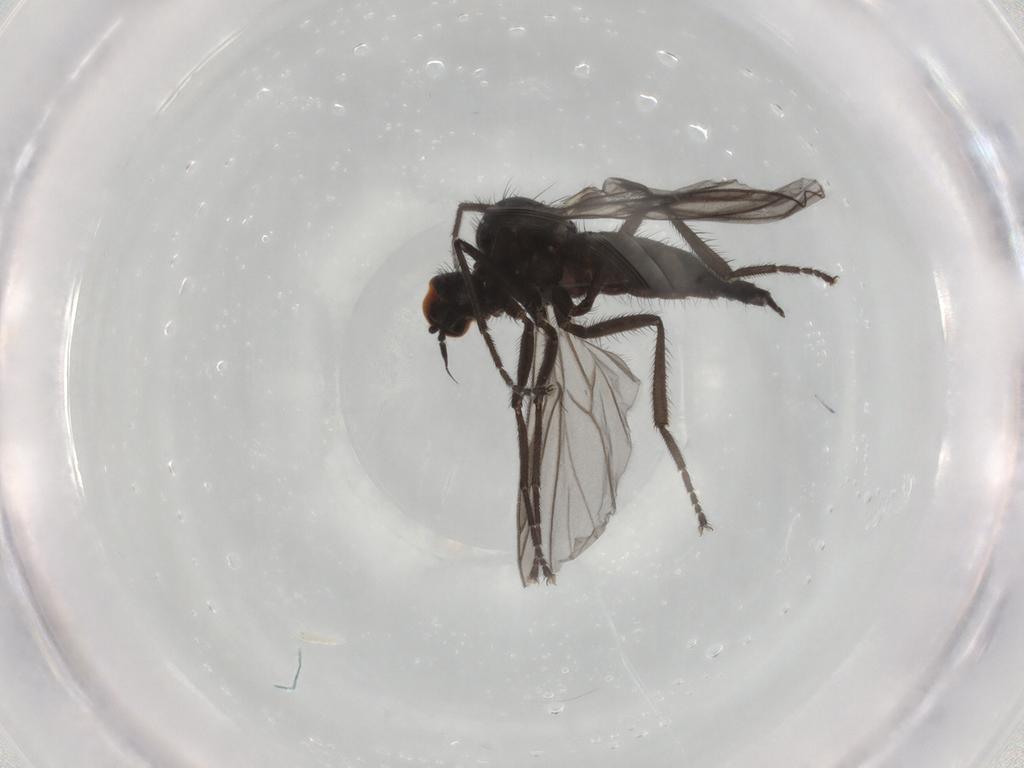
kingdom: Animalia
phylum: Arthropoda
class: Insecta
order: Diptera
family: Hybotidae
